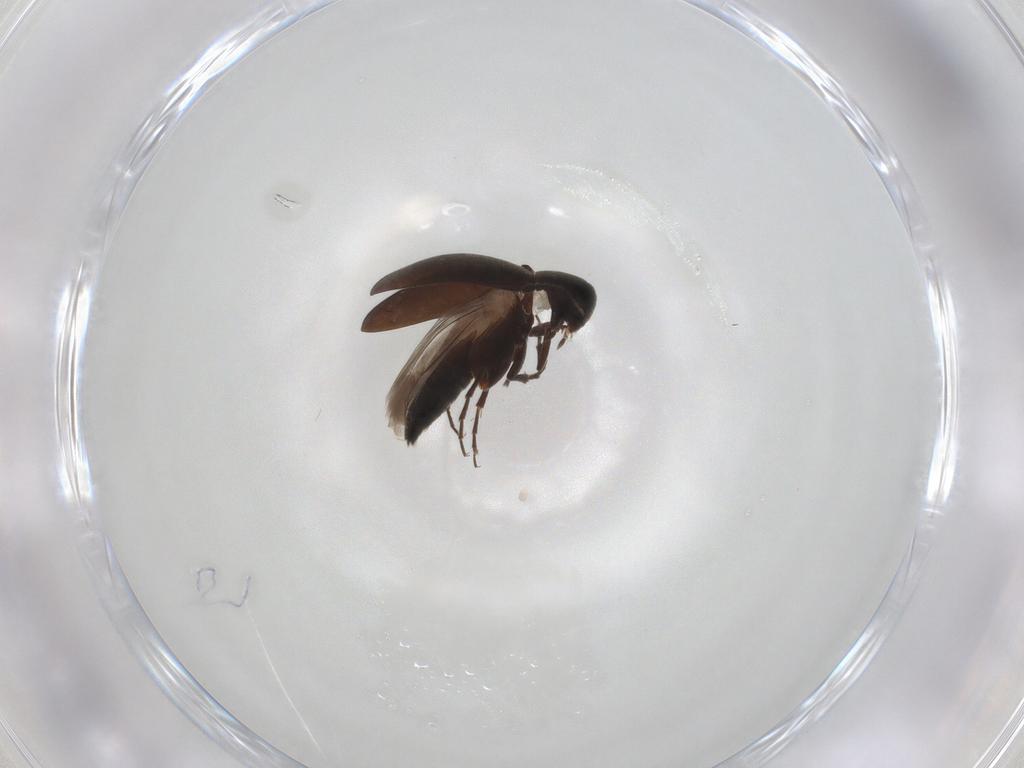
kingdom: Animalia
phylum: Arthropoda
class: Insecta
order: Coleoptera
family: Scraptiidae
